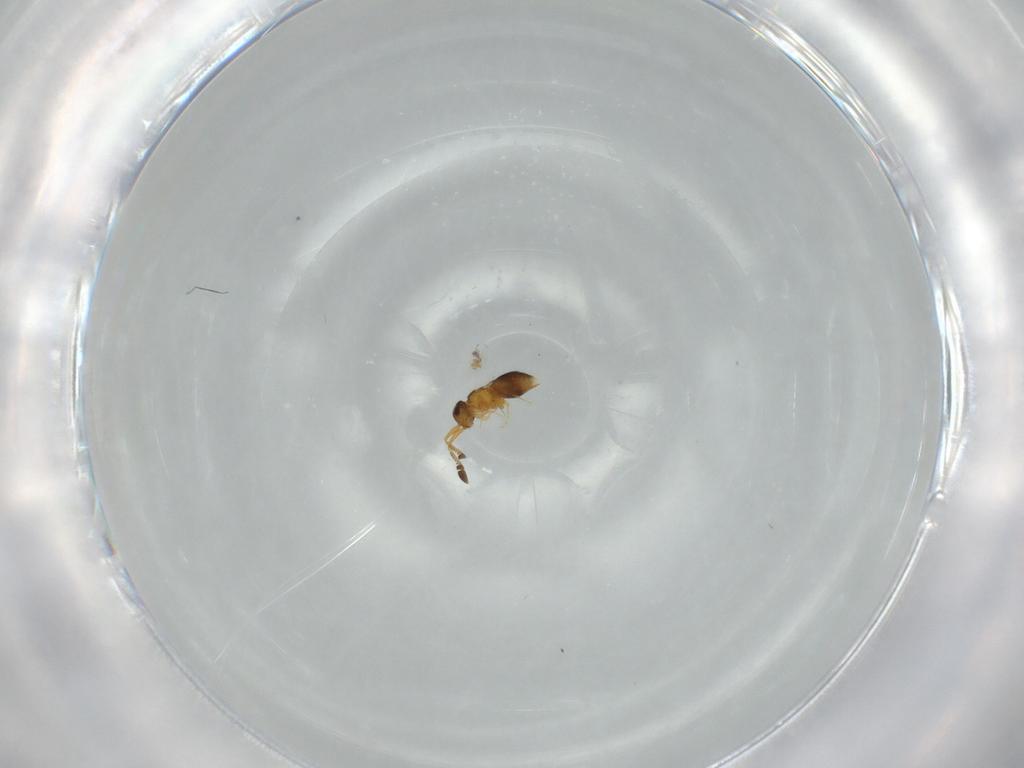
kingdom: Animalia
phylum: Arthropoda
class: Insecta
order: Hymenoptera
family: Ceraphronidae
